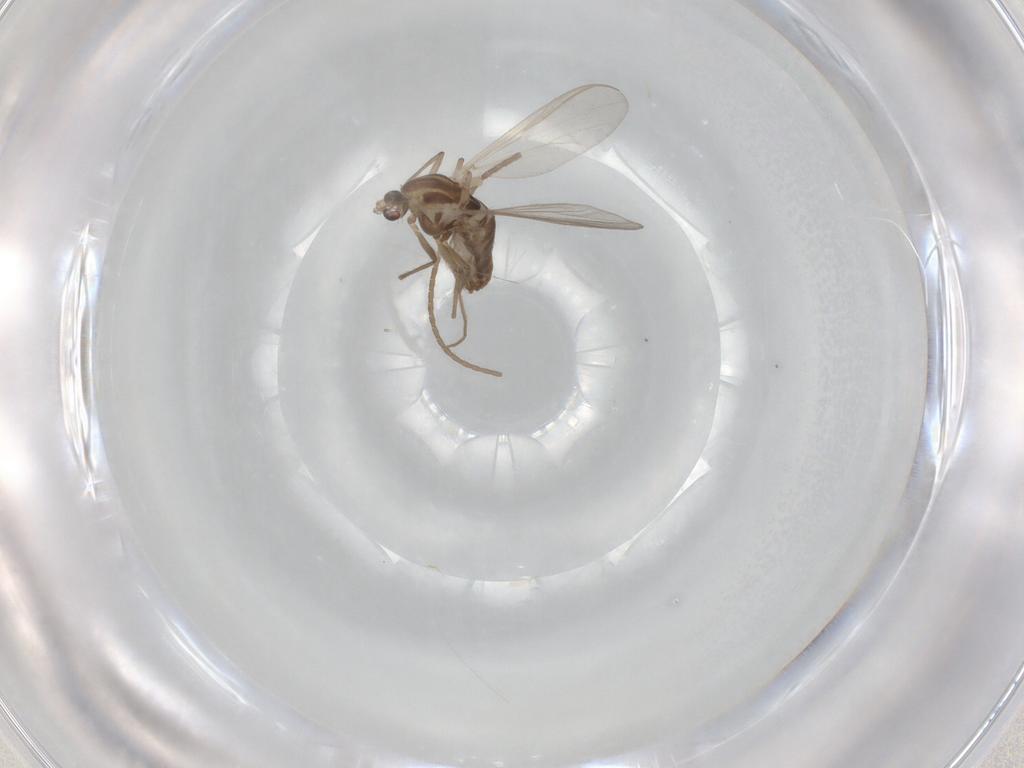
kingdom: Animalia
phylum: Arthropoda
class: Insecta
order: Diptera
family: Chironomidae
